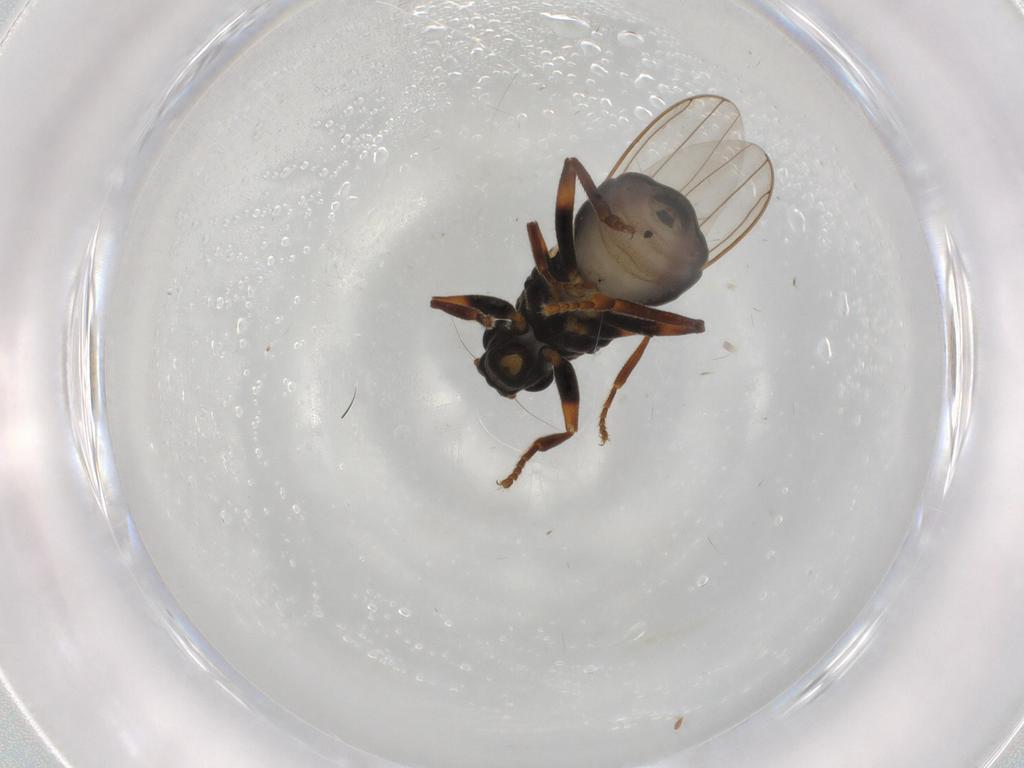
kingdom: Animalia
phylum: Arthropoda
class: Insecta
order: Diptera
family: Sphaeroceridae
